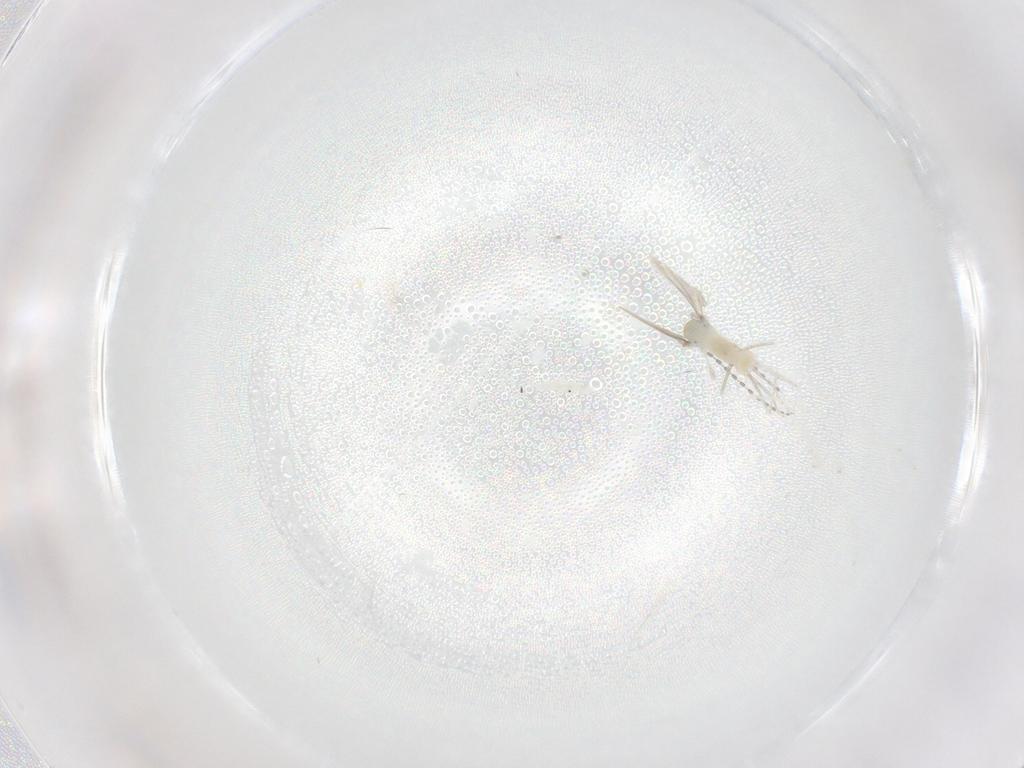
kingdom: Animalia
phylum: Arthropoda
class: Insecta
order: Diptera
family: Cecidomyiidae
